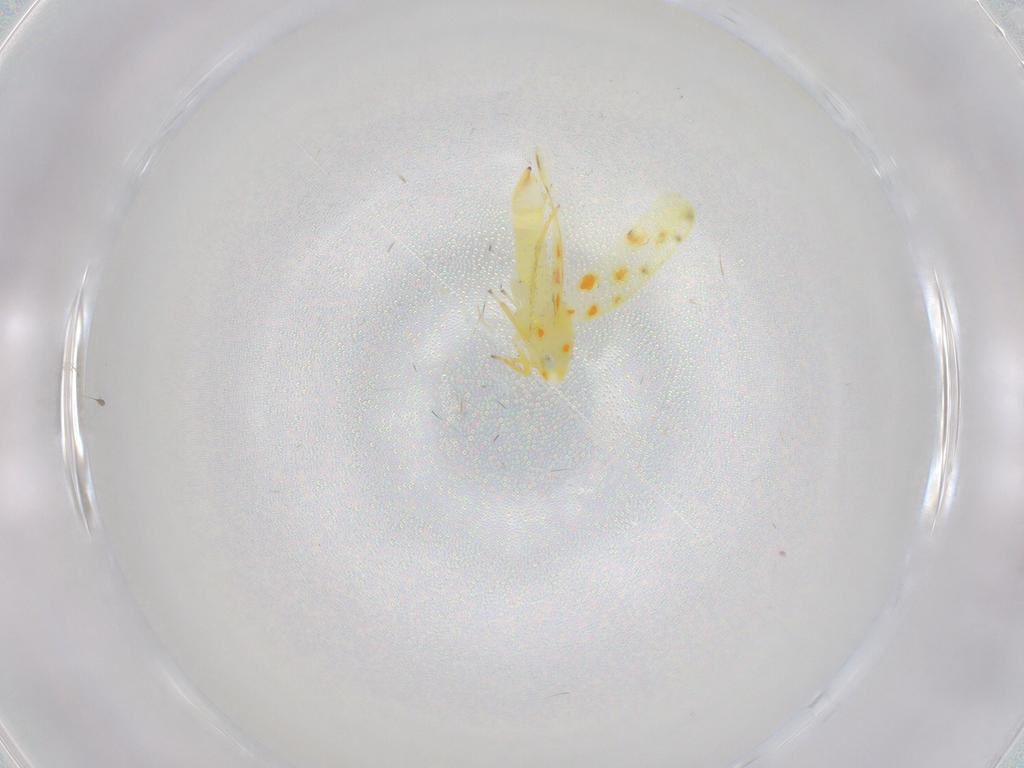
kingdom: Animalia
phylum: Arthropoda
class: Insecta
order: Hemiptera
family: Cicadellidae
